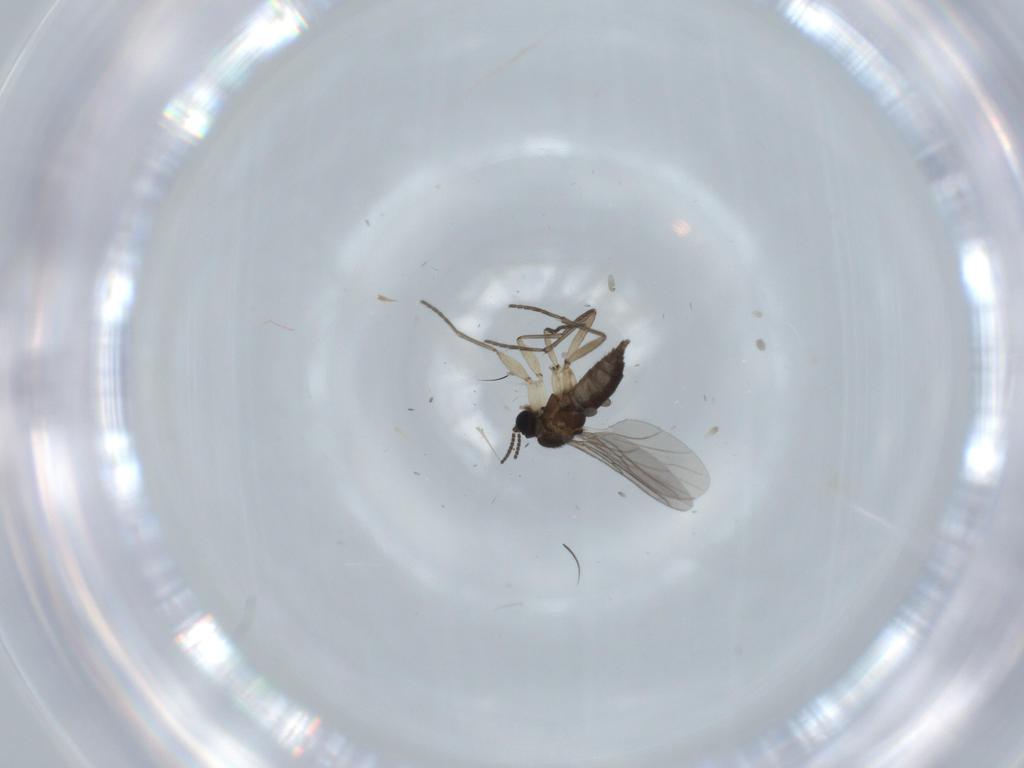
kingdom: Animalia
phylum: Arthropoda
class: Insecta
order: Diptera
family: Sciaridae
